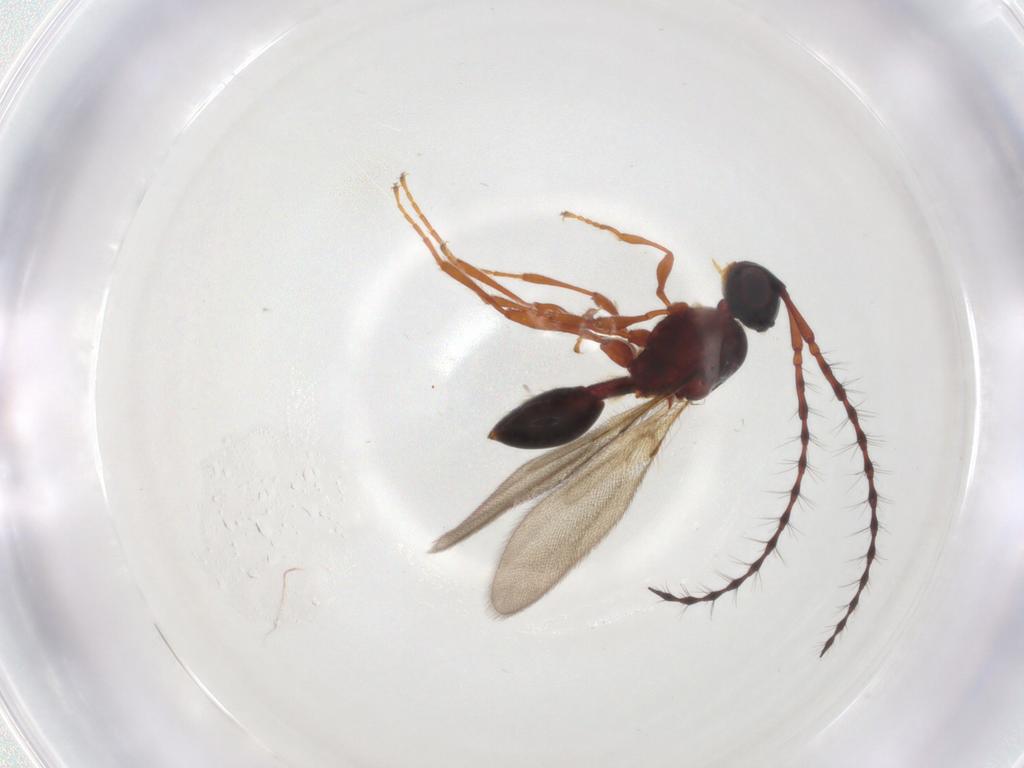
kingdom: Animalia
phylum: Arthropoda
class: Insecta
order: Hymenoptera
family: Diapriidae
